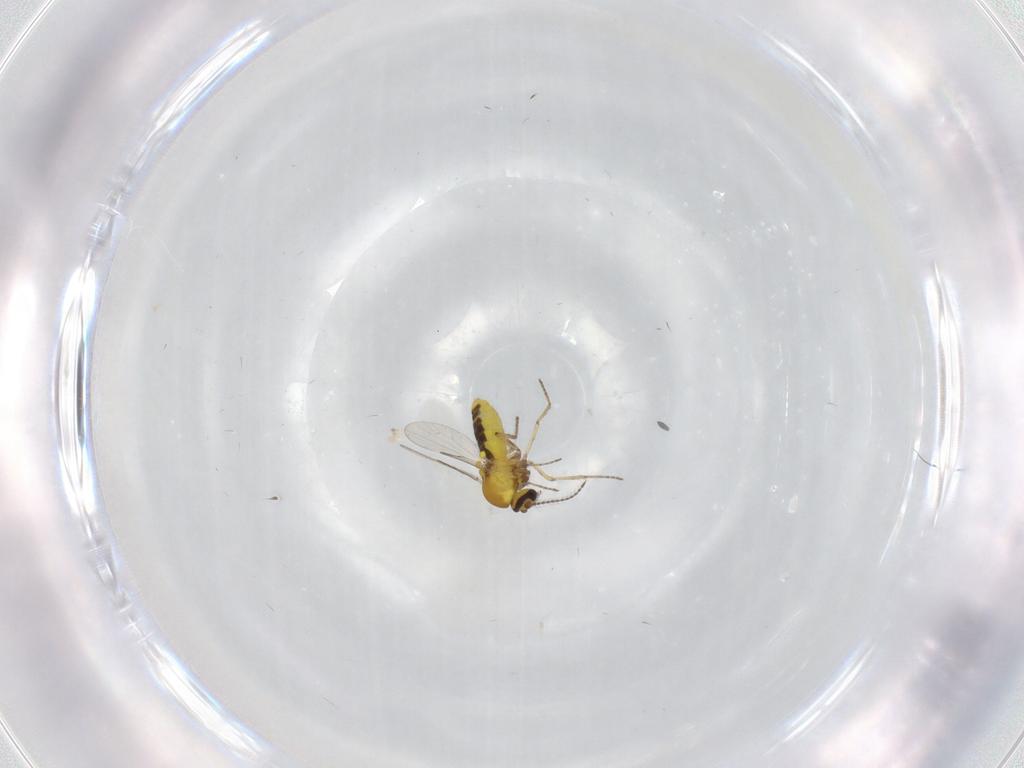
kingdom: Animalia
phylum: Arthropoda
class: Insecta
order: Diptera
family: Ceratopogonidae
